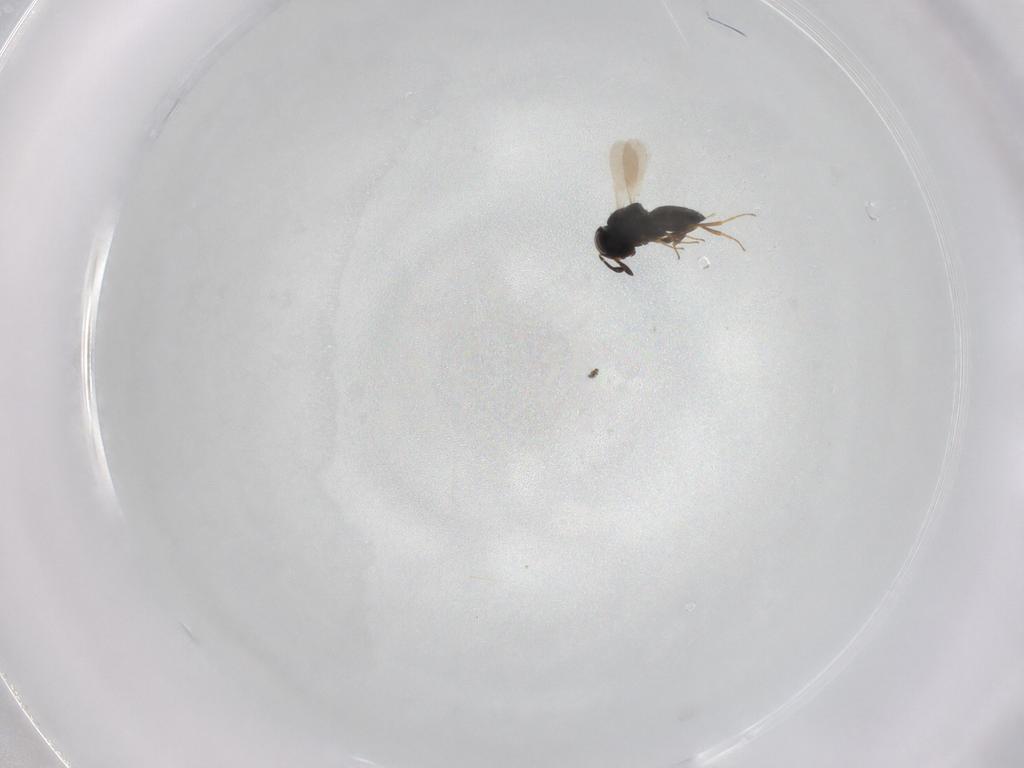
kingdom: Animalia
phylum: Arthropoda
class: Insecta
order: Hymenoptera
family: Scelionidae
